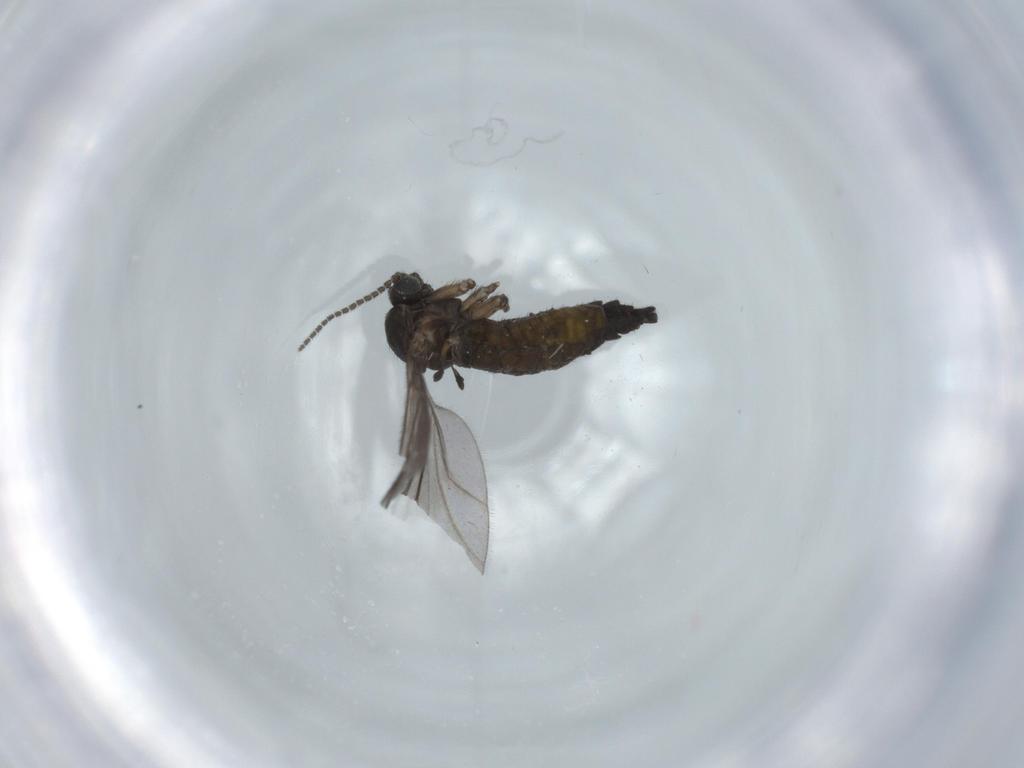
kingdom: Animalia
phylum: Arthropoda
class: Insecta
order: Diptera
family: Sciaridae
